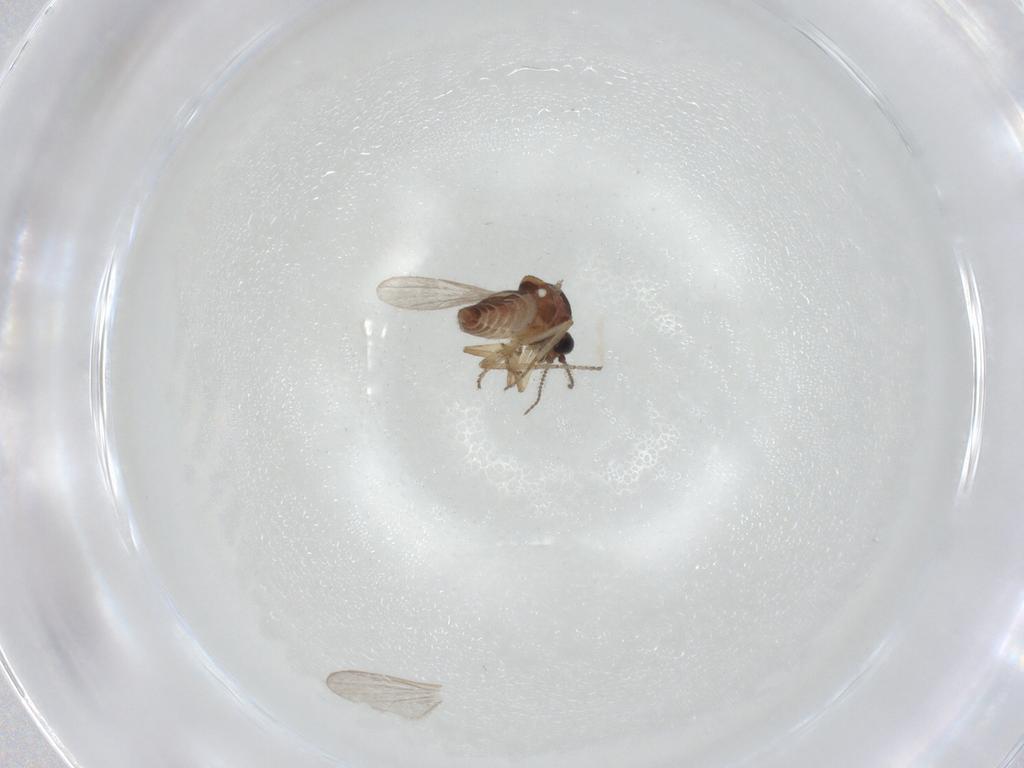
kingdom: Animalia
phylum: Arthropoda
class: Insecta
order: Diptera
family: Ceratopogonidae
